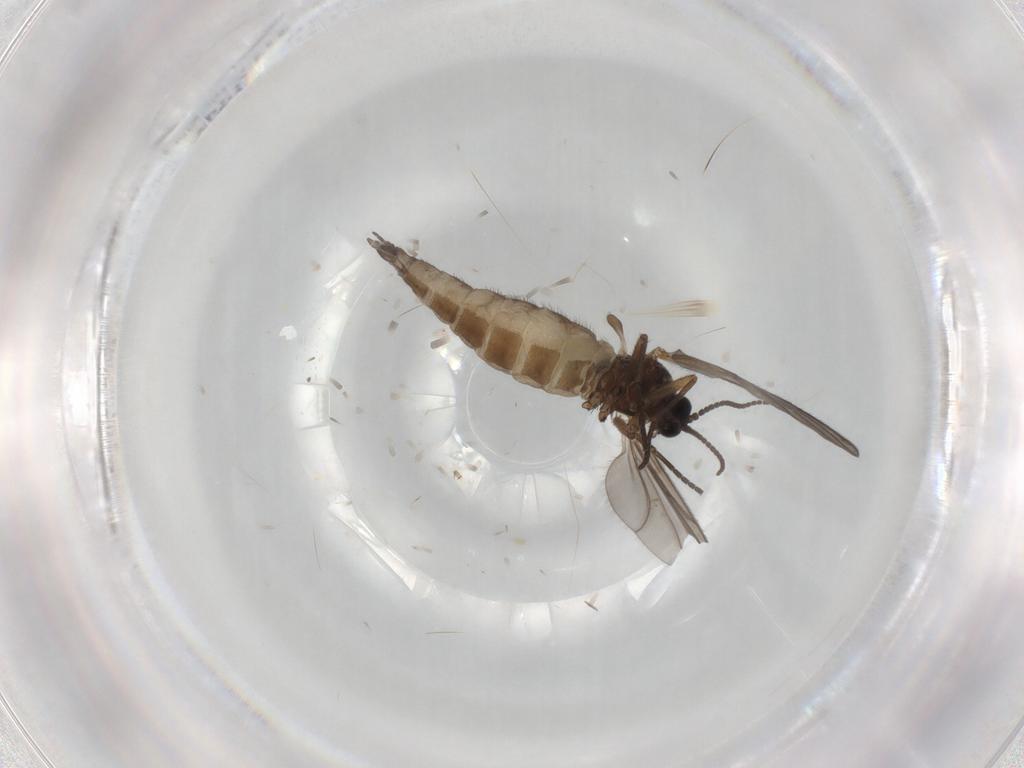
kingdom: Animalia
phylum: Arthropoda
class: Insecta
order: Diptera
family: Sciaridae
